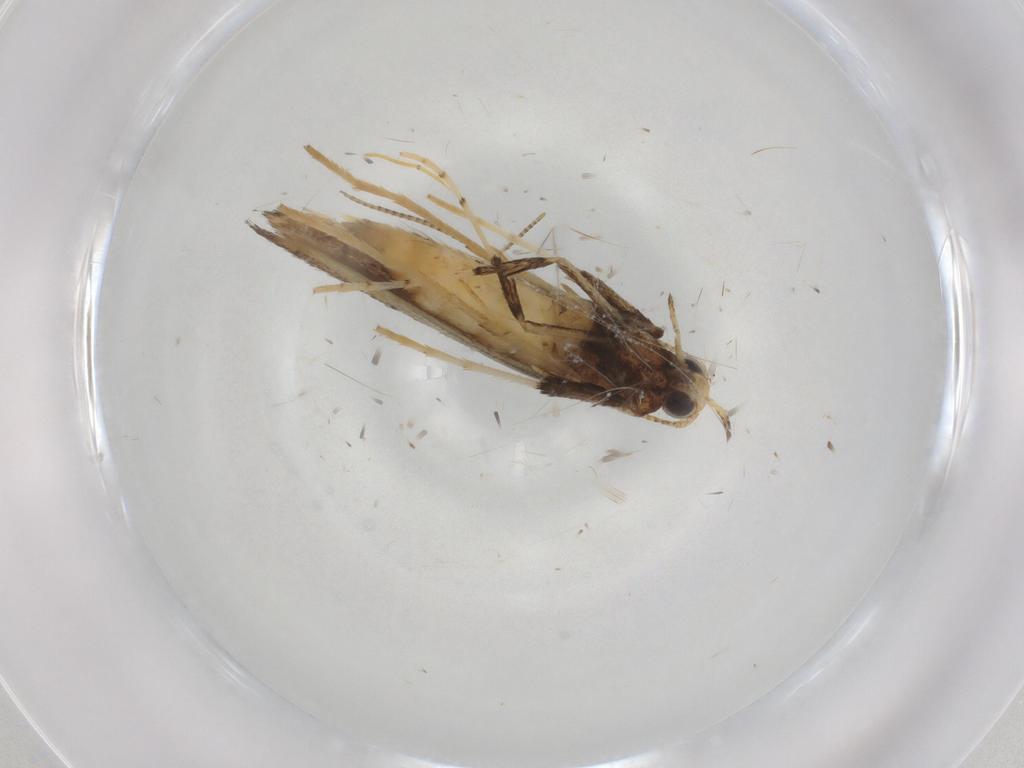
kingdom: Animalia
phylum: Arthropoda
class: Insecta
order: Lepidoptera
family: Gracillariidae
